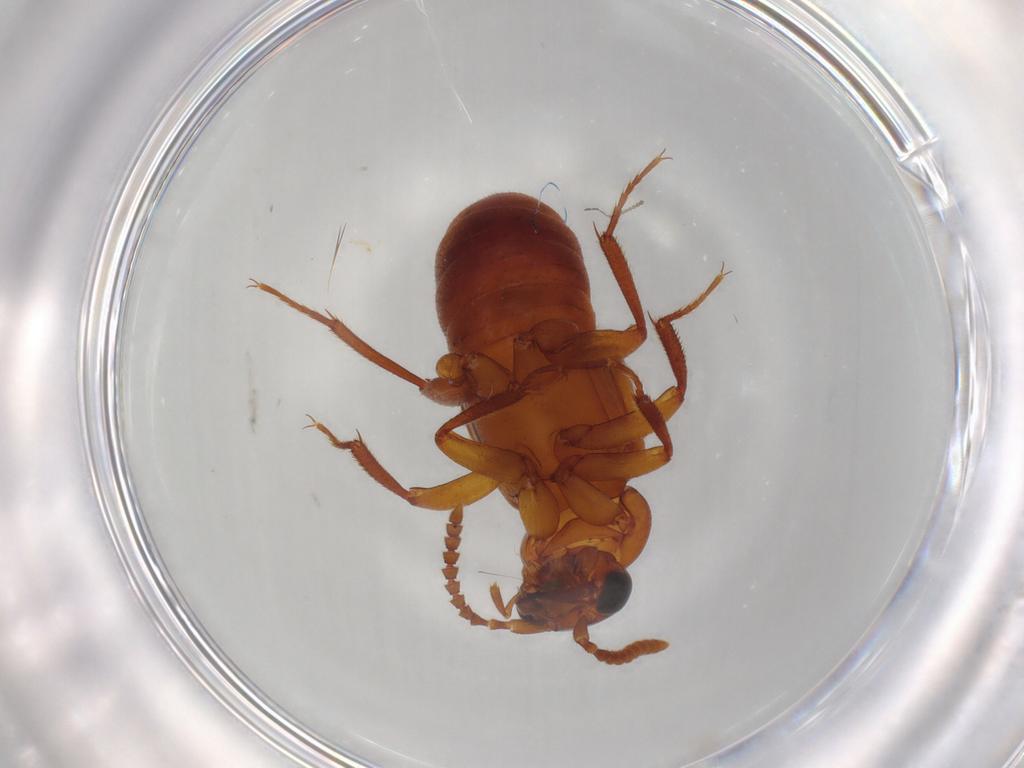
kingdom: Animalia
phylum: Arthropoda
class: Insecta
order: Coleoptera
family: Staphylinidae
